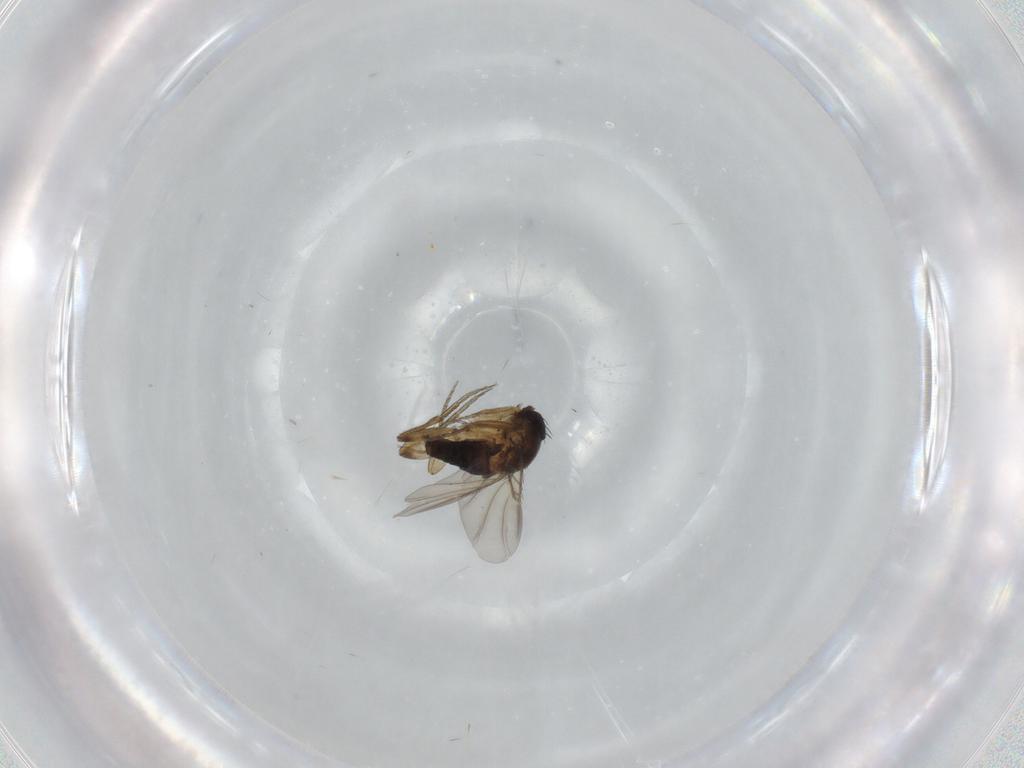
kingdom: Animalia
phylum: Arthropoda
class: Insecta
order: Diptera
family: Phoridae
